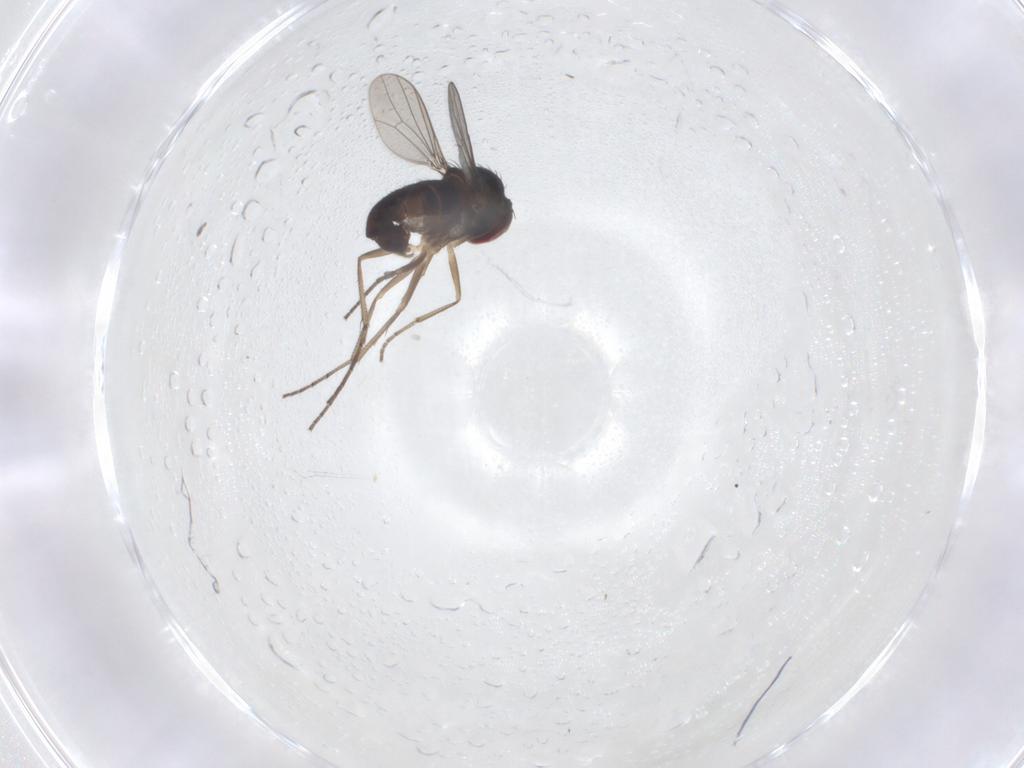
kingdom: Animalia
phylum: Arthropoda
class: Insecta
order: Diptera
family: Dolichopodidae
